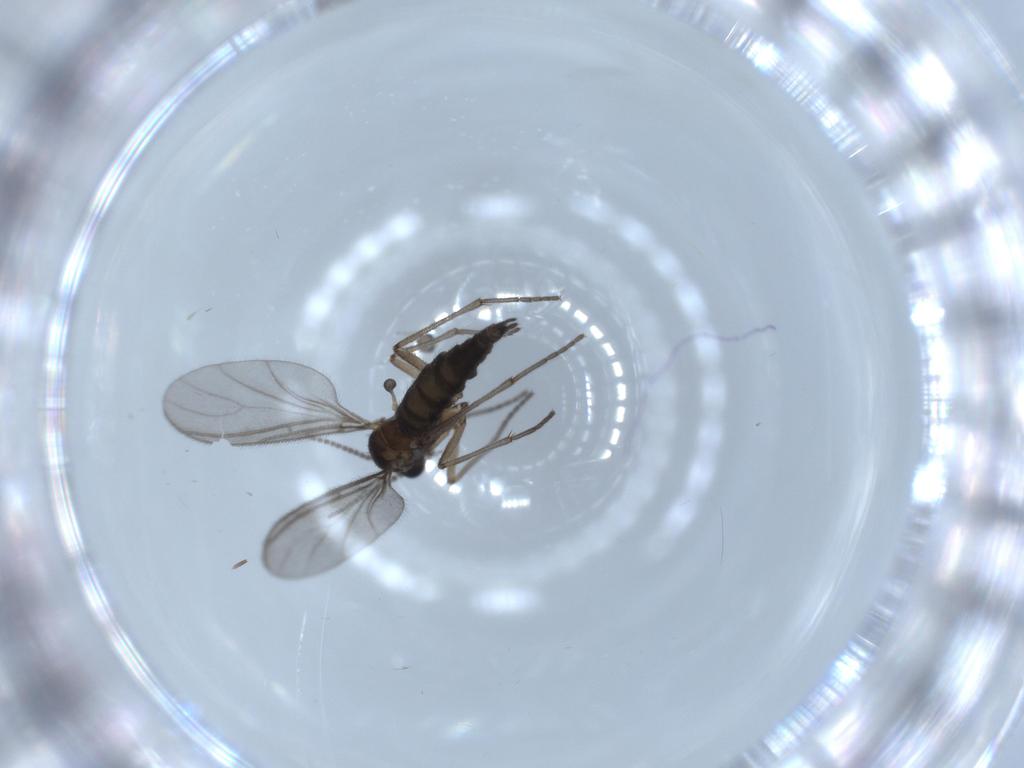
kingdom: Animalia
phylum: Arthropoda
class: Insecta
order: Diptera
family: Sciaridae
